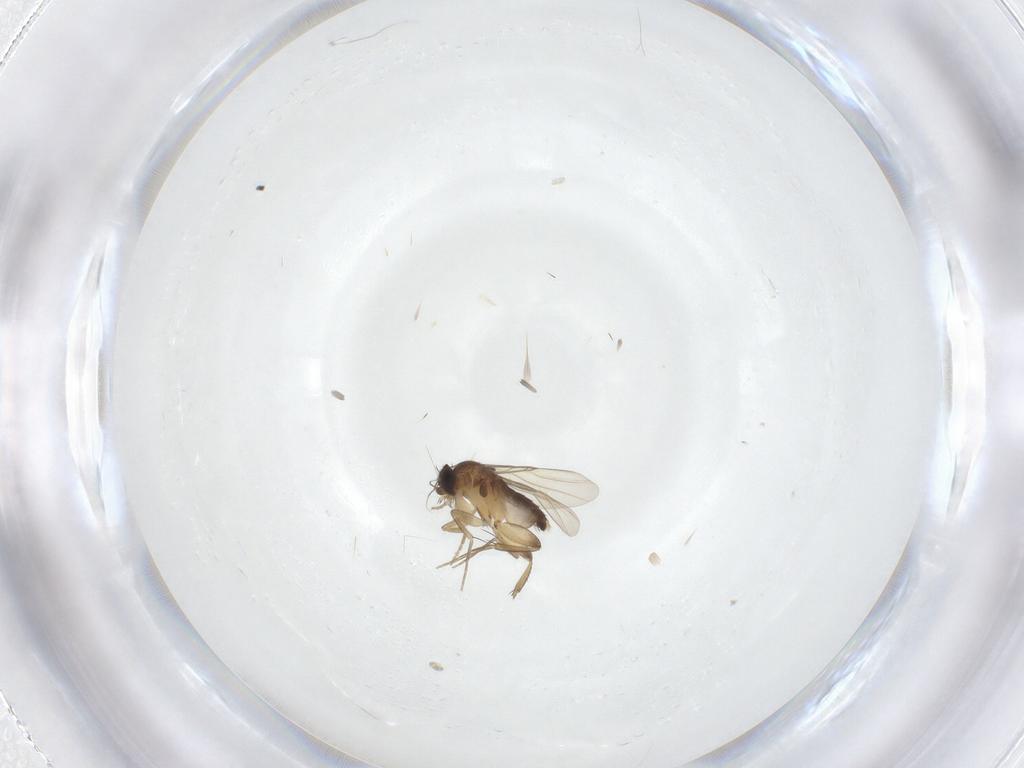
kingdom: Animalia
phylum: Arthropoda
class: Insecta
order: Diptera
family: Phoridae
